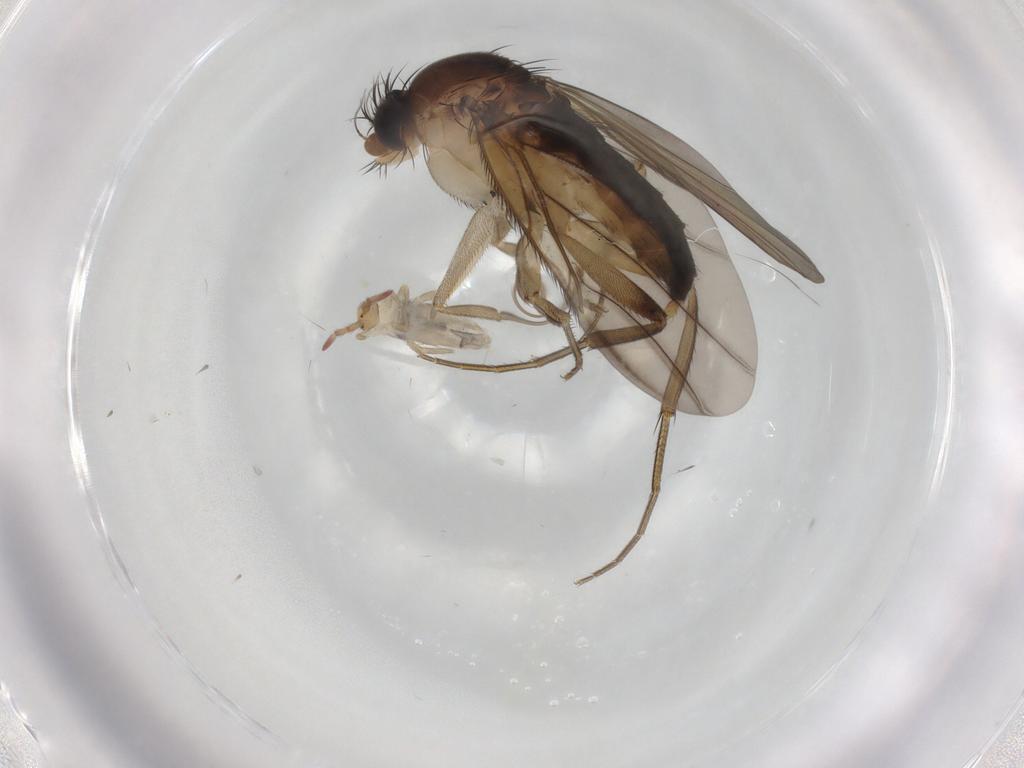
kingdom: Animalia
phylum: Arthropoda
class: Insecta
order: Diptera
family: Phoridae
